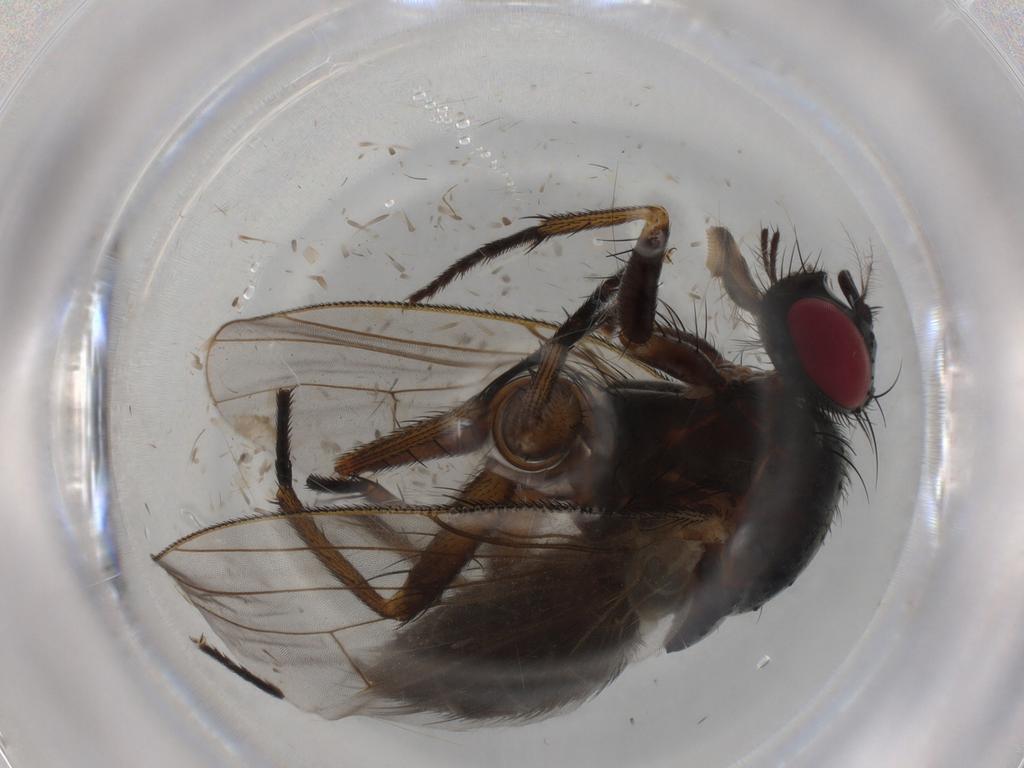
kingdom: Animalia
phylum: Arthropoda
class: Insecta
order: Diptera
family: Muscidae
